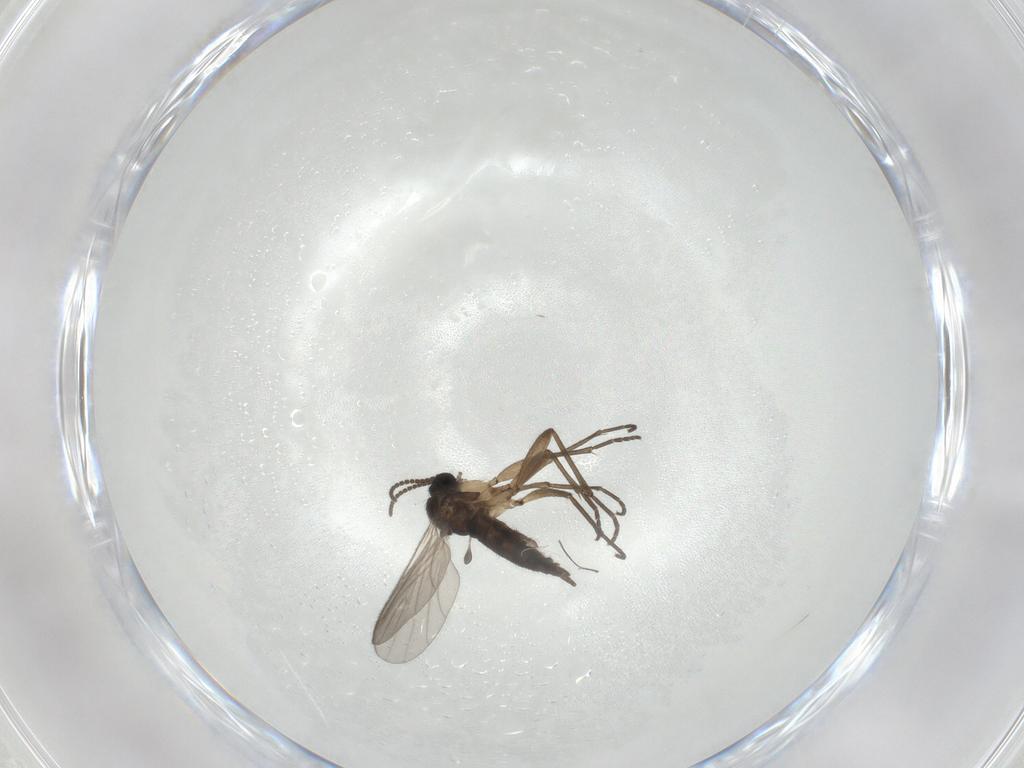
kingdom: Animalia
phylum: Arthropoda
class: Insecta
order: Diptera
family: Sciaridae
